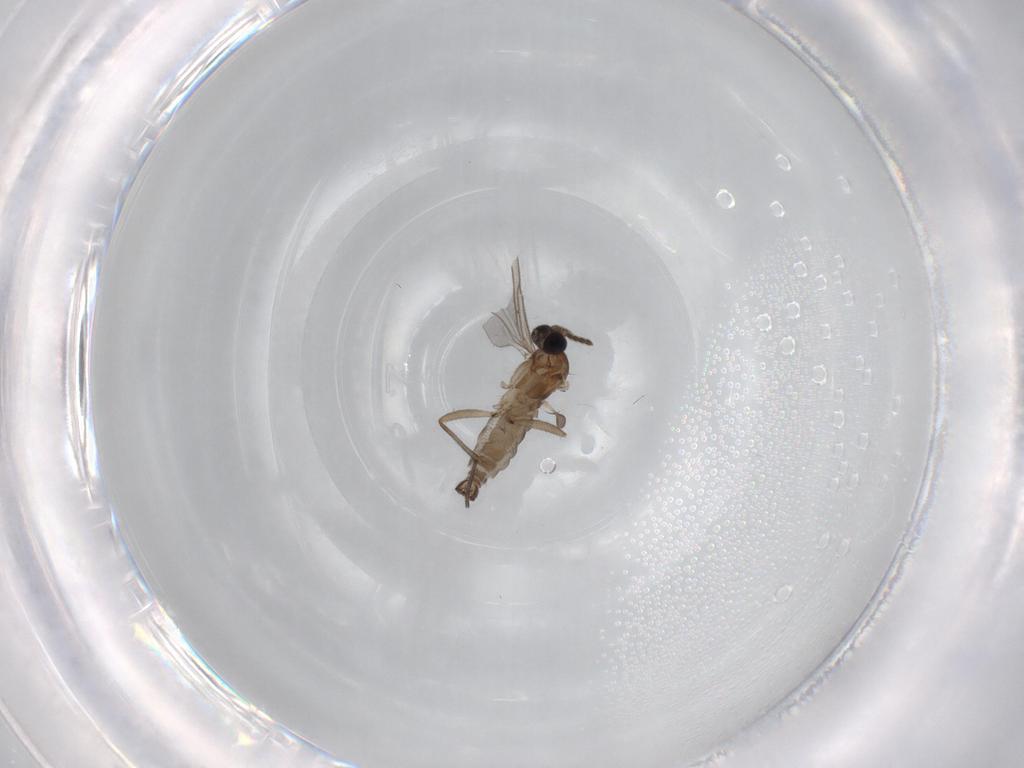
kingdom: Animalia
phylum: Arthropoda
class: Insecta
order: Diptera
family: Sciaridae
